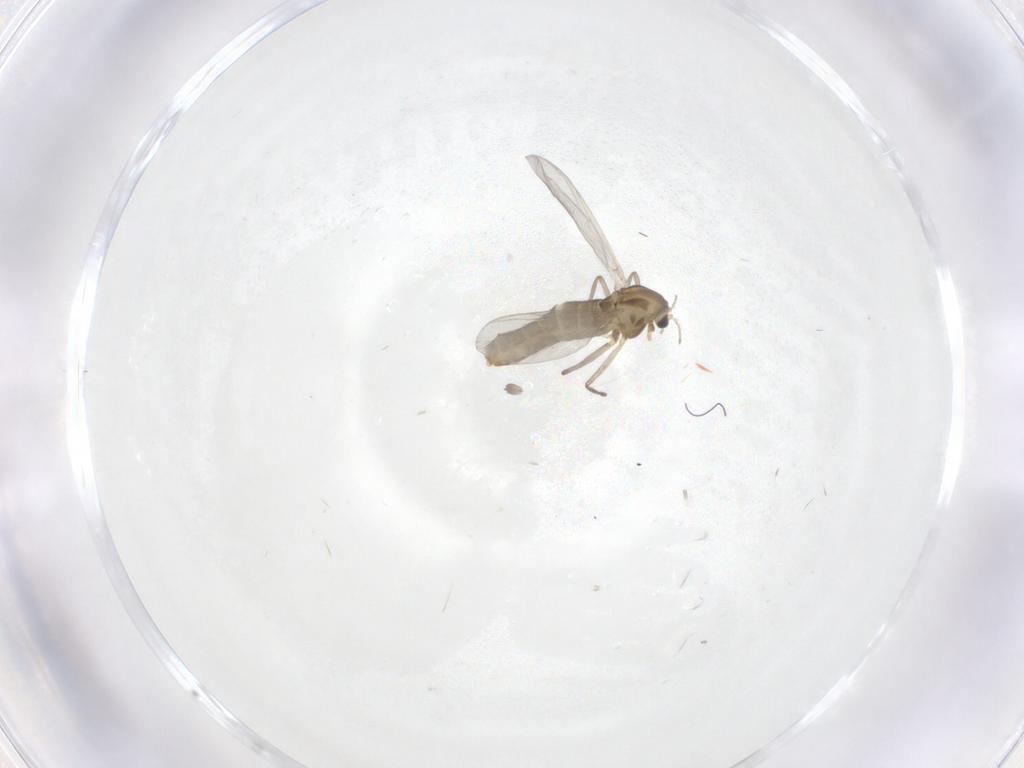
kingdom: Animalia
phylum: Arthropoda
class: Insecta
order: Diptera
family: Chironomidae
